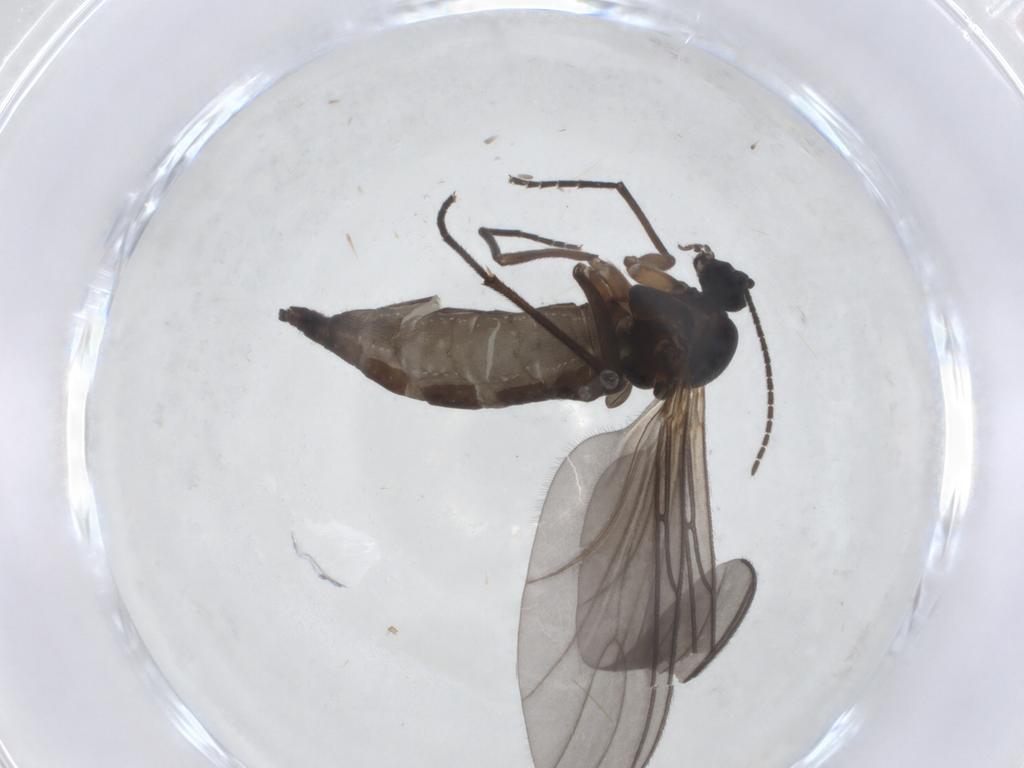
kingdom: Animalia
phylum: Arthropoda
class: Insecta
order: Diptera
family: Sciaridae
